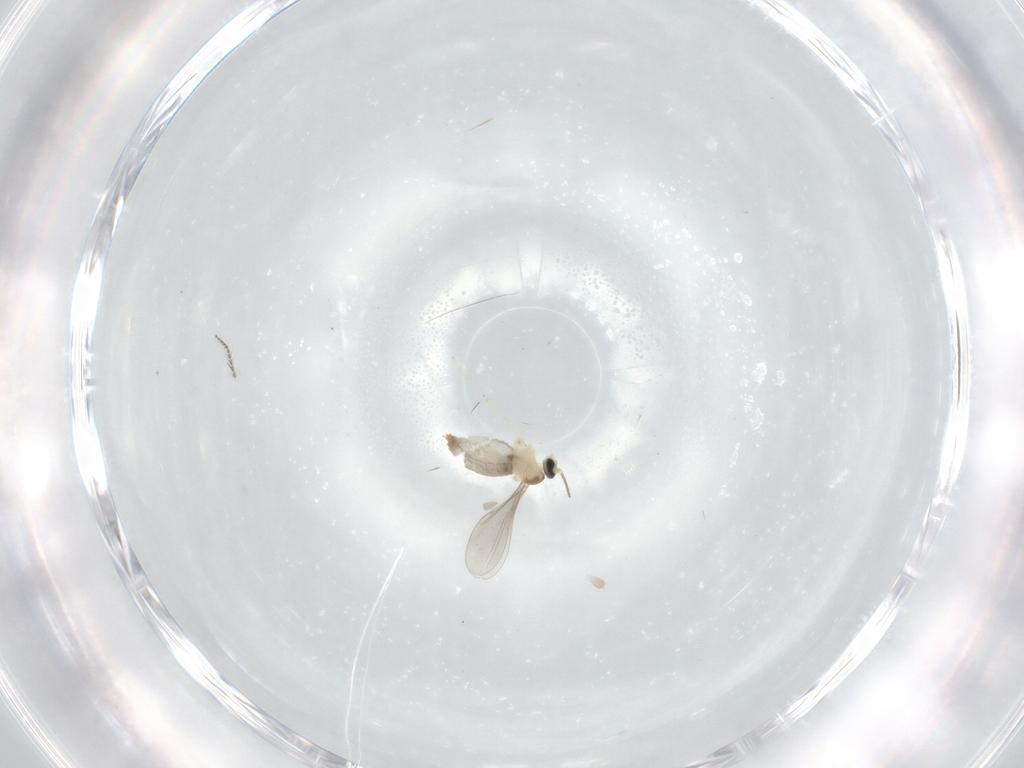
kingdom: Animalia
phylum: Arthropoda
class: Insecta
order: Diptera
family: Cecidomyiidae
